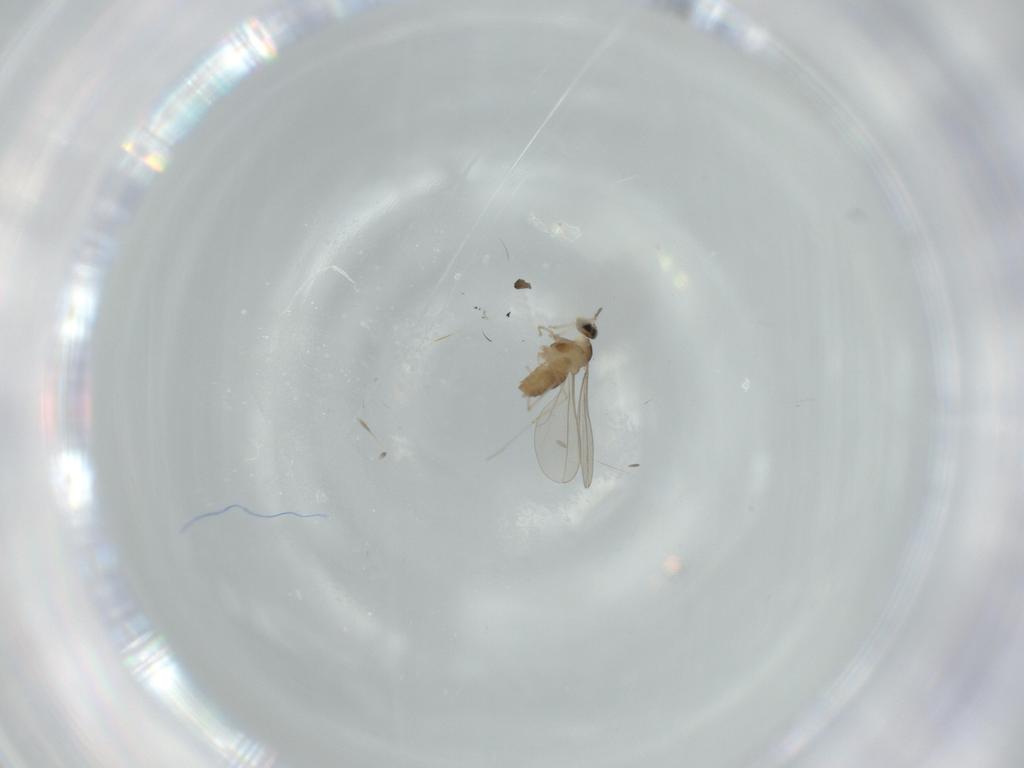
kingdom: Animalia
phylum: Arthropoda
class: Insecta
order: Diptera
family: Cecidomyiidae
